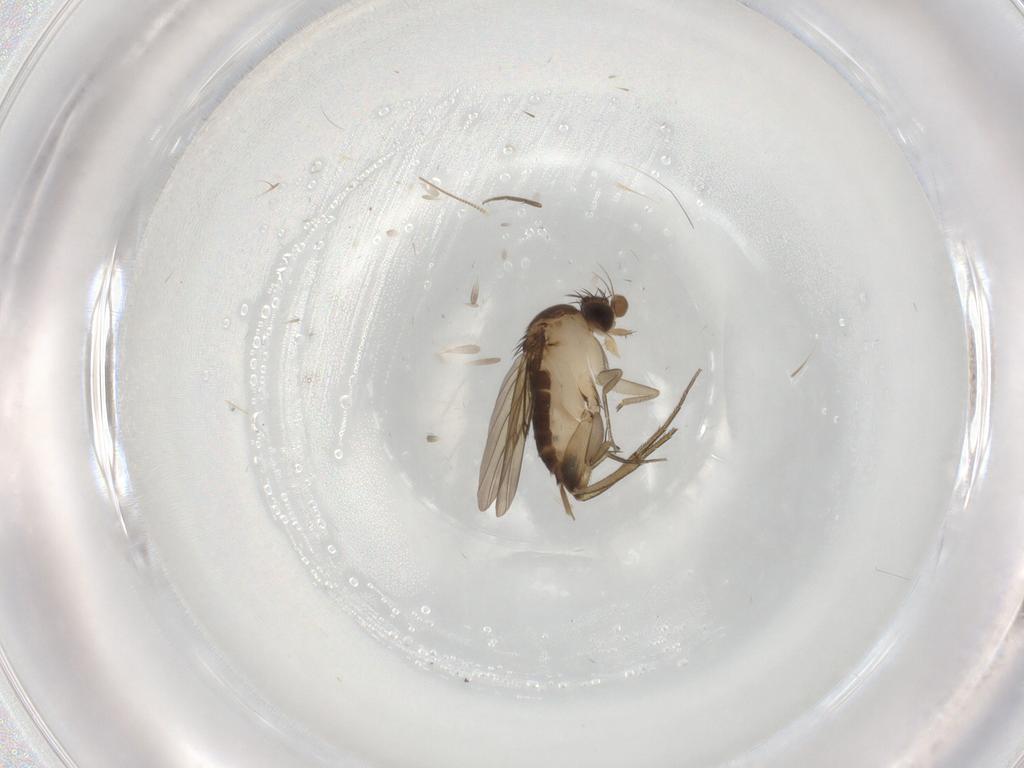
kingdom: Animalia
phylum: Arthropoda
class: Insecta
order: Diptera
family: Phoridae
